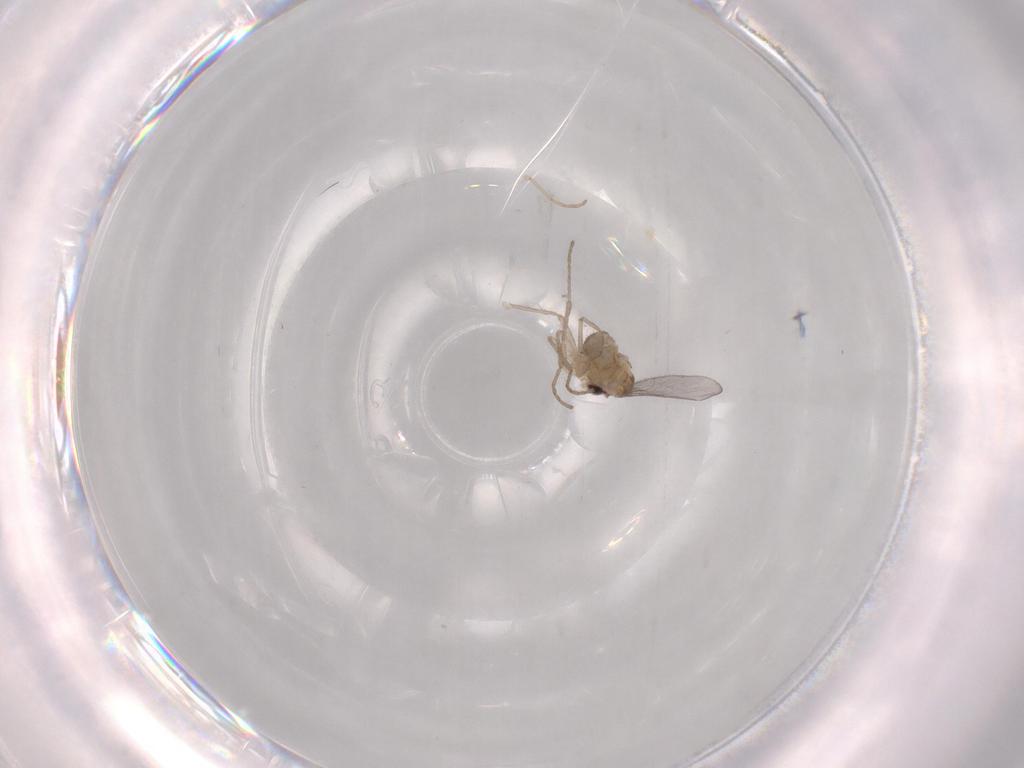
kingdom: Animalia
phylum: Arthropoda
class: Insecta
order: Diptera
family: Cecidomyiidae
